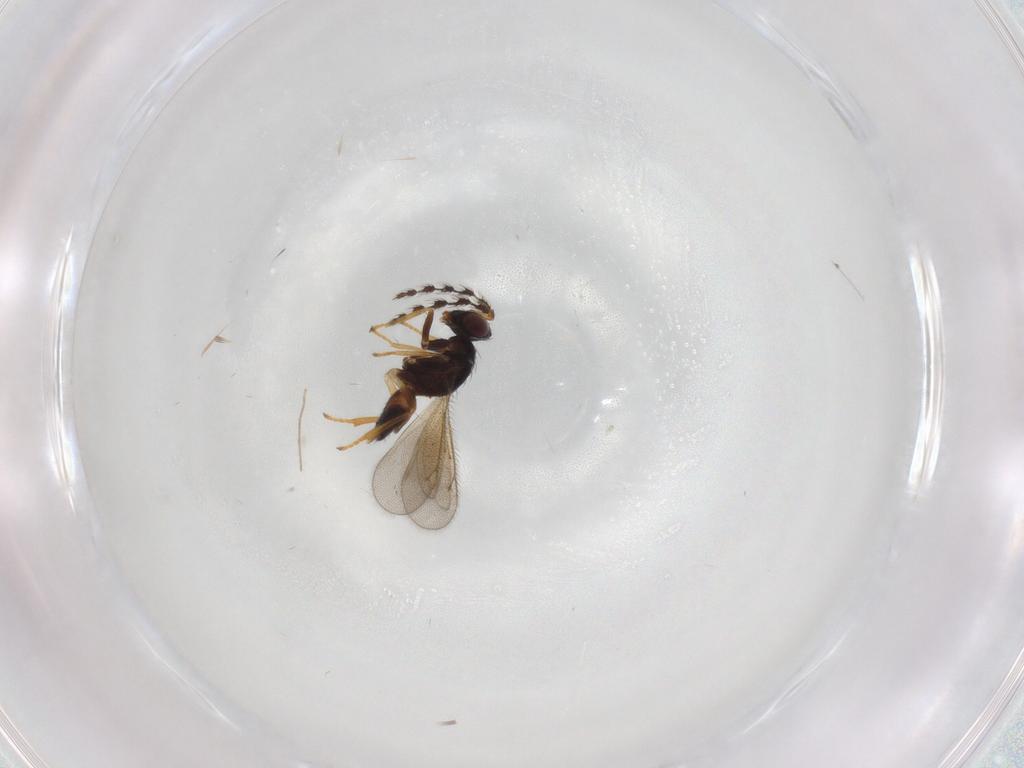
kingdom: Animalia
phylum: Arthropoda
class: Insecta
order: Hymenoptera
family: Eulophidae
